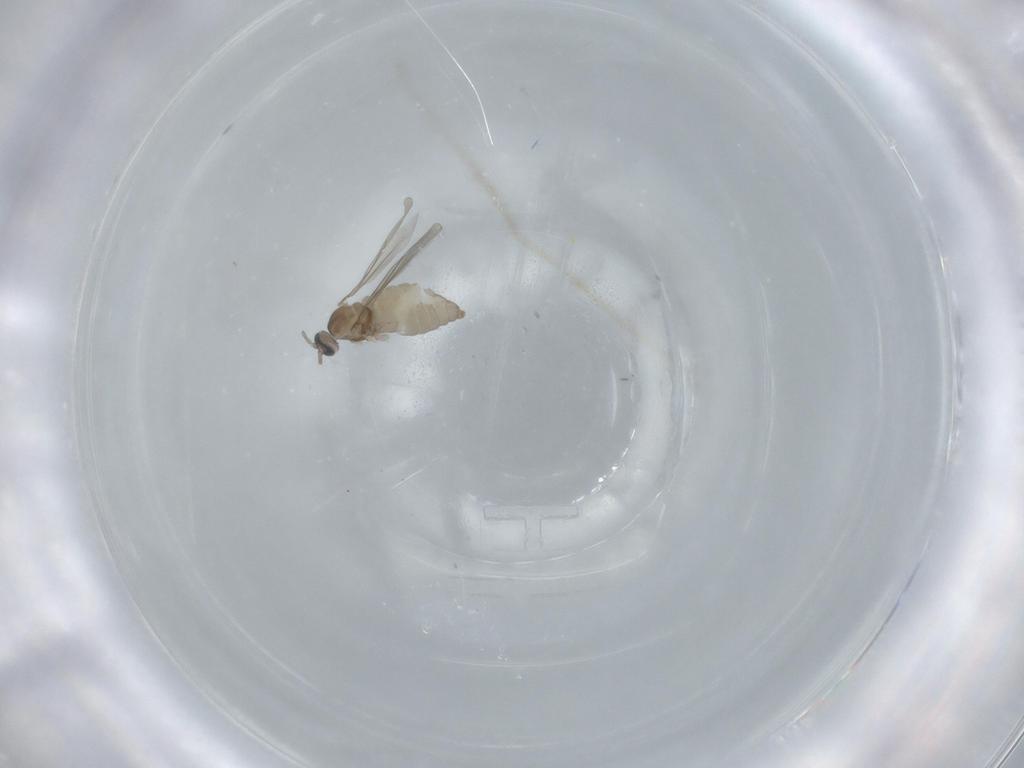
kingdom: Animalia
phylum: Arthropoda
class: Insecta
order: Diptera
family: Cecidomyiidae
